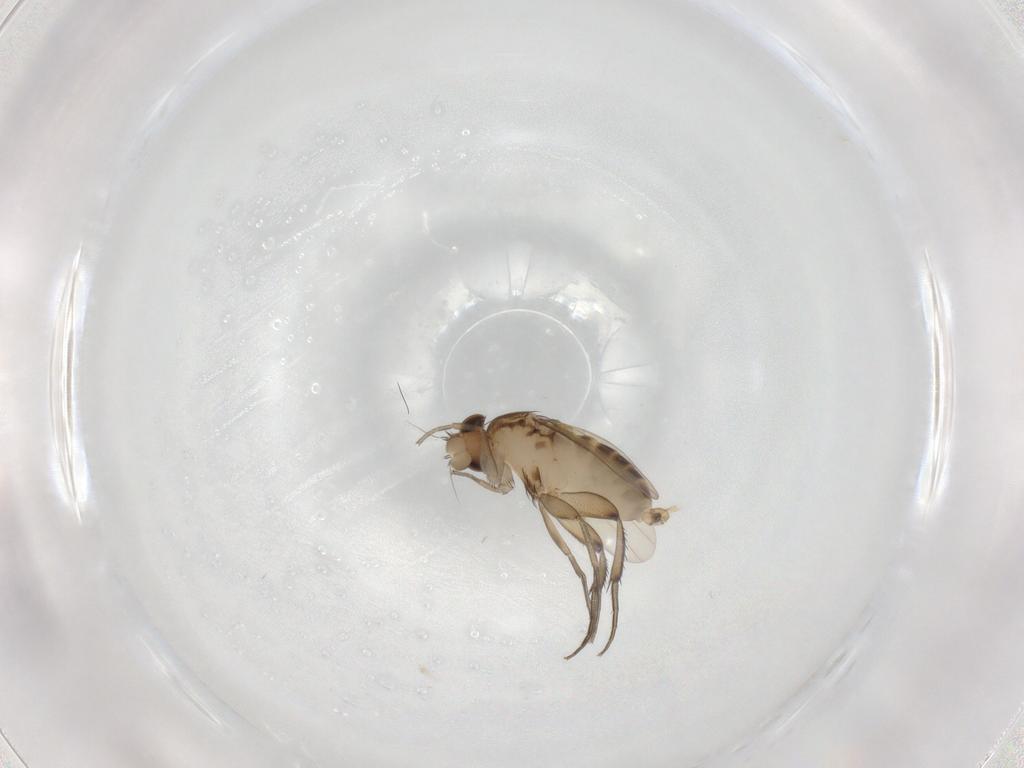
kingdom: Animalia
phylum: Arthropoda
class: Insecta
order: Diptera
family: Phoridae
